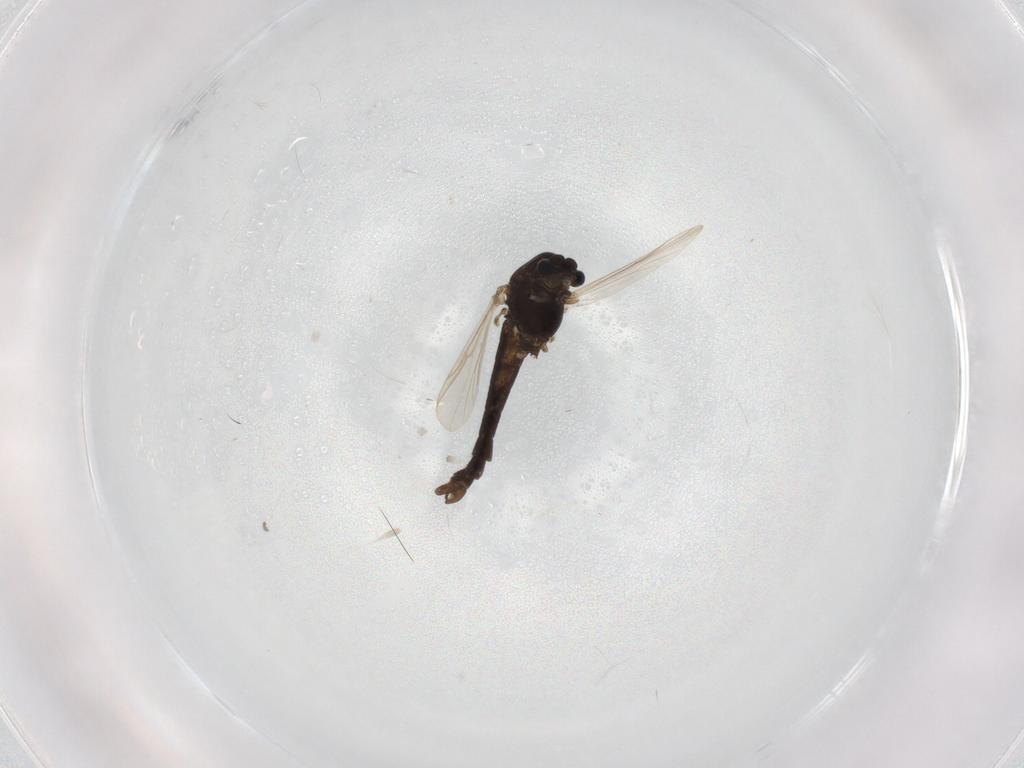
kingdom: Animalia
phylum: Arthropoda
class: Insecta
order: Diptera
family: Chironomidae
